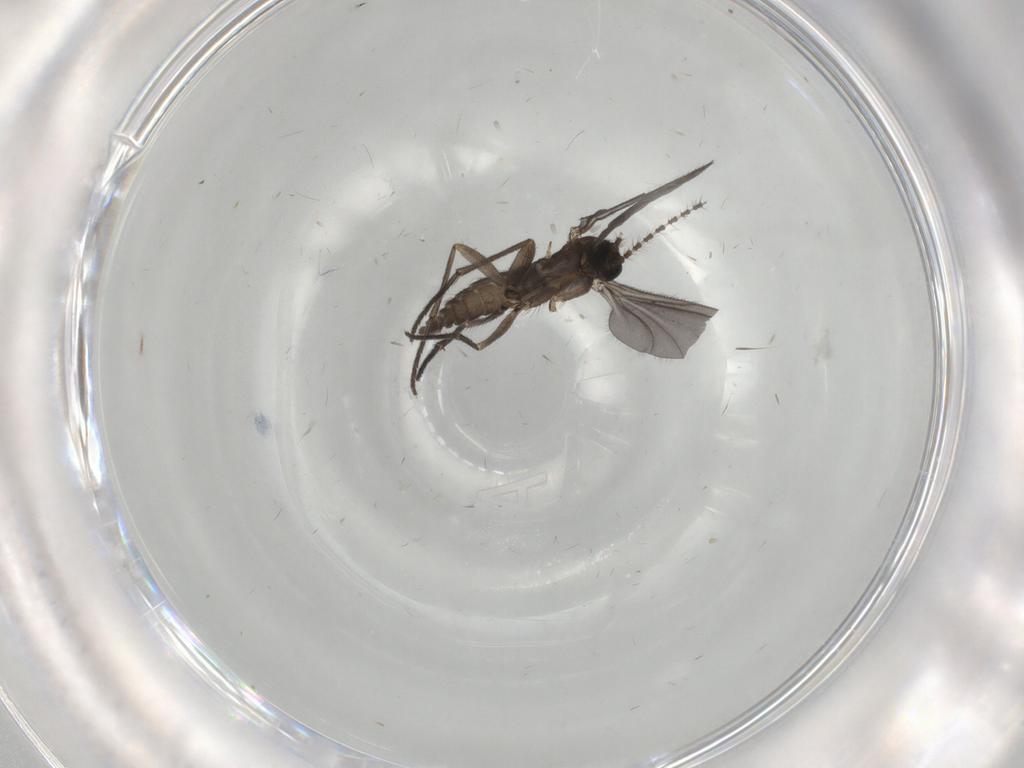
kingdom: Animalia
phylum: Arthropoda
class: Insecta
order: Diptera
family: Sciaridae
